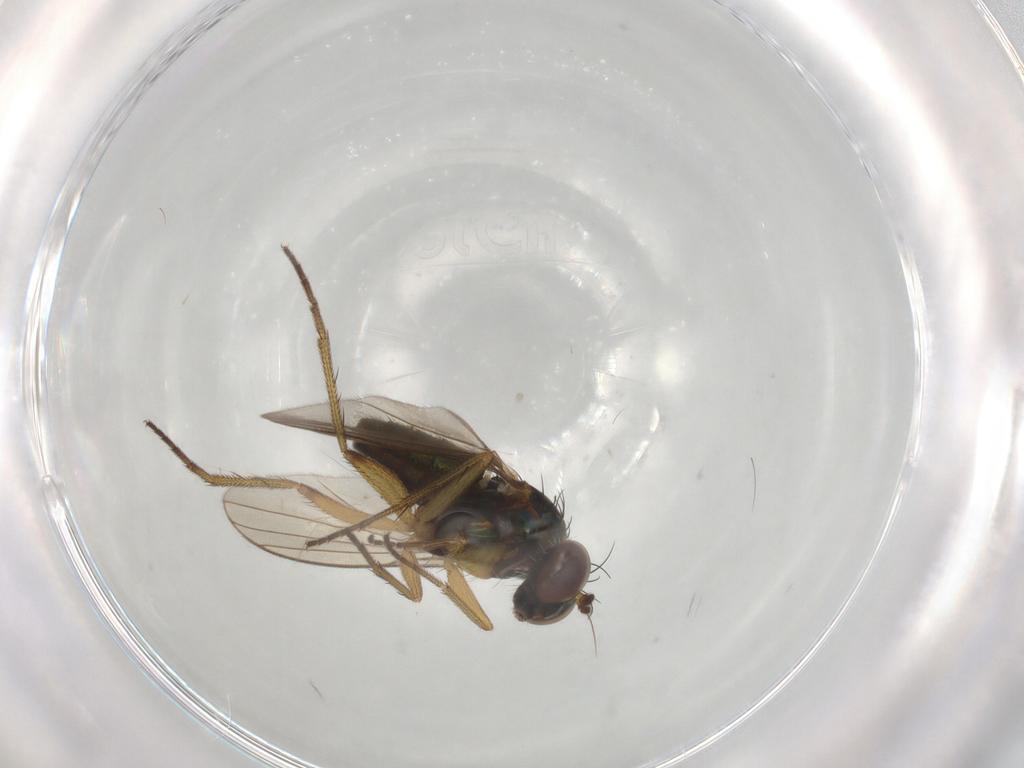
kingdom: Animalia
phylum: Arthropoda
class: Insecta
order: Diptera
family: Dolichopodidae
